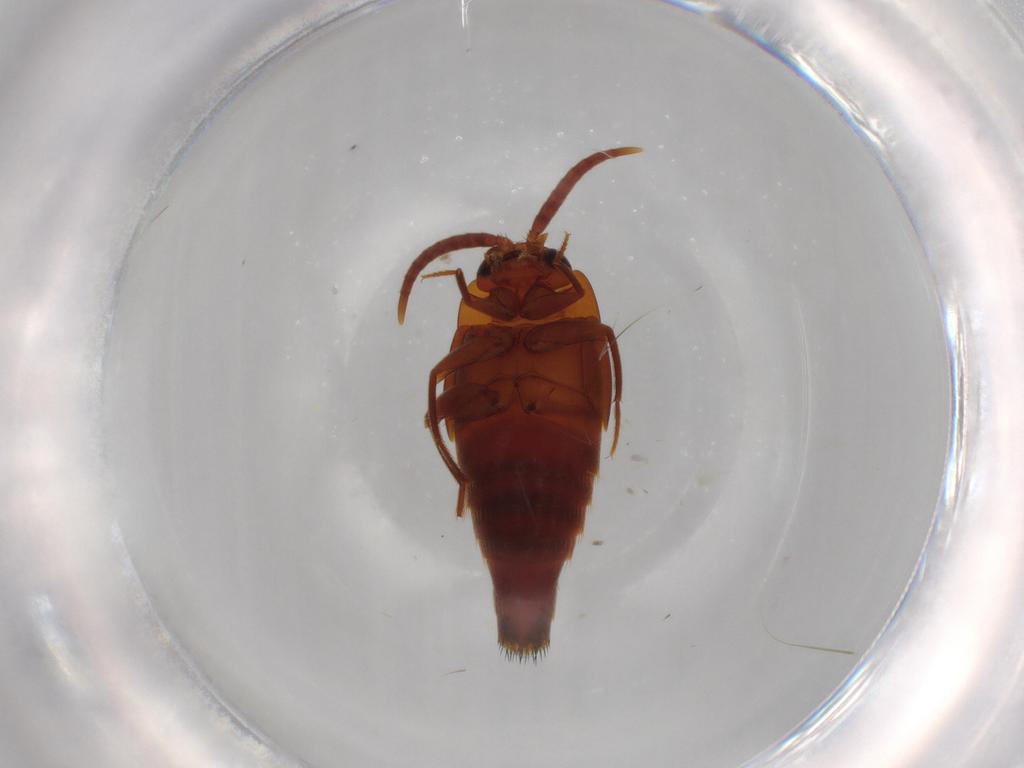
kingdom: Animalia
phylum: Arthropoda
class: Insecta
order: Coleoptera
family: Staphylinidae
